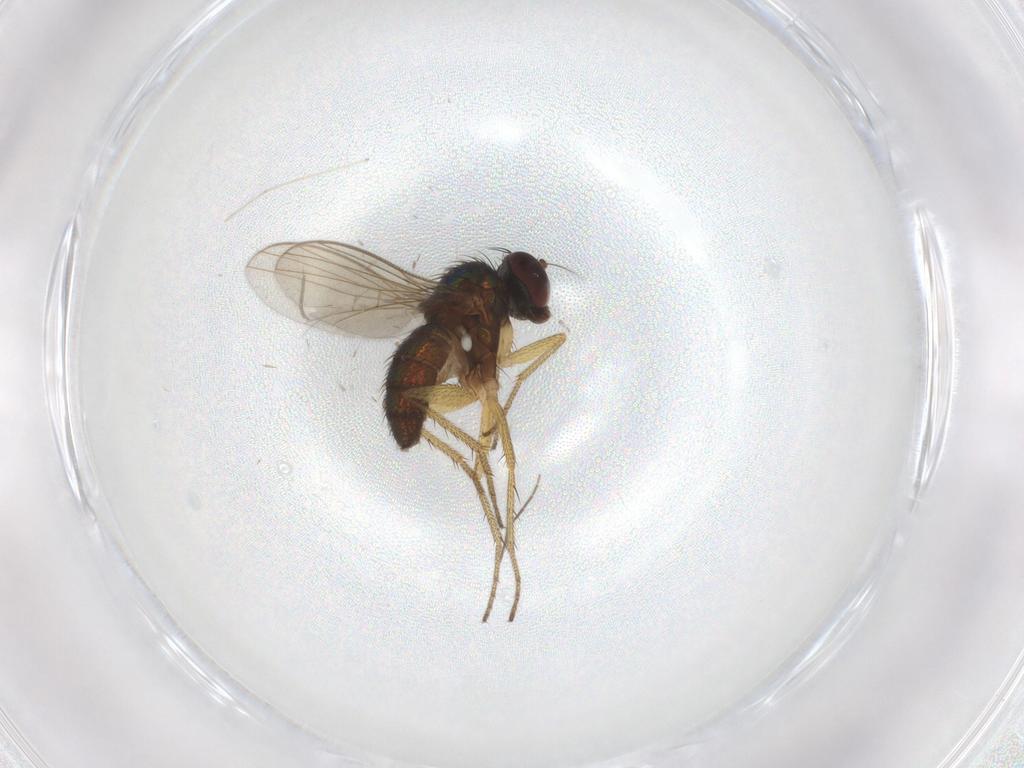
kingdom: Animalia
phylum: Arthropoda
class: Insecta
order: Diptera
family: Chironomidae
